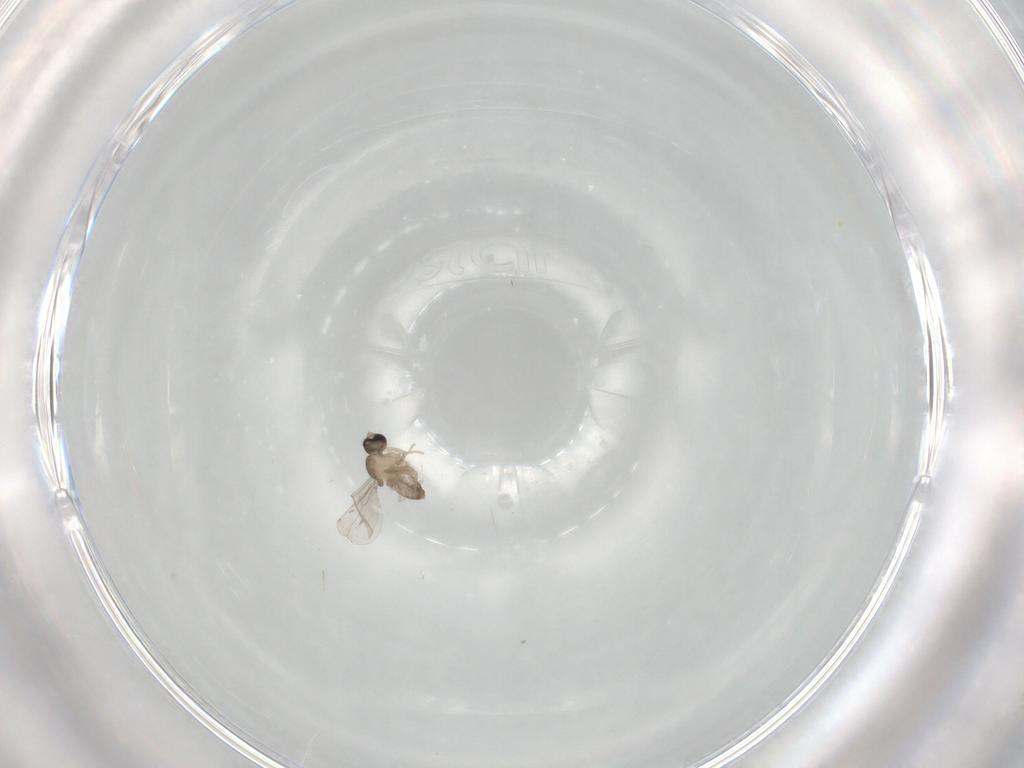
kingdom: Animalia
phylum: Arthropoda
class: Insecta
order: Diptera
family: Phoridae
